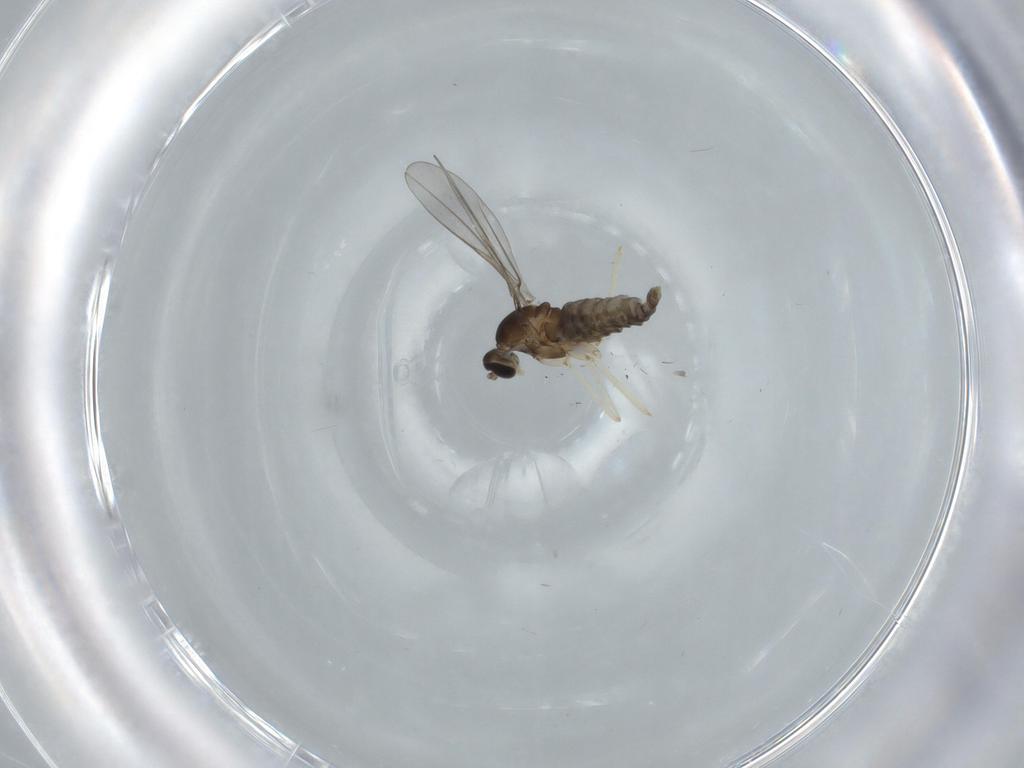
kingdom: Animalia
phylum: Arthropoda
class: Insecta
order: Diptera
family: Cecidomyiidae
